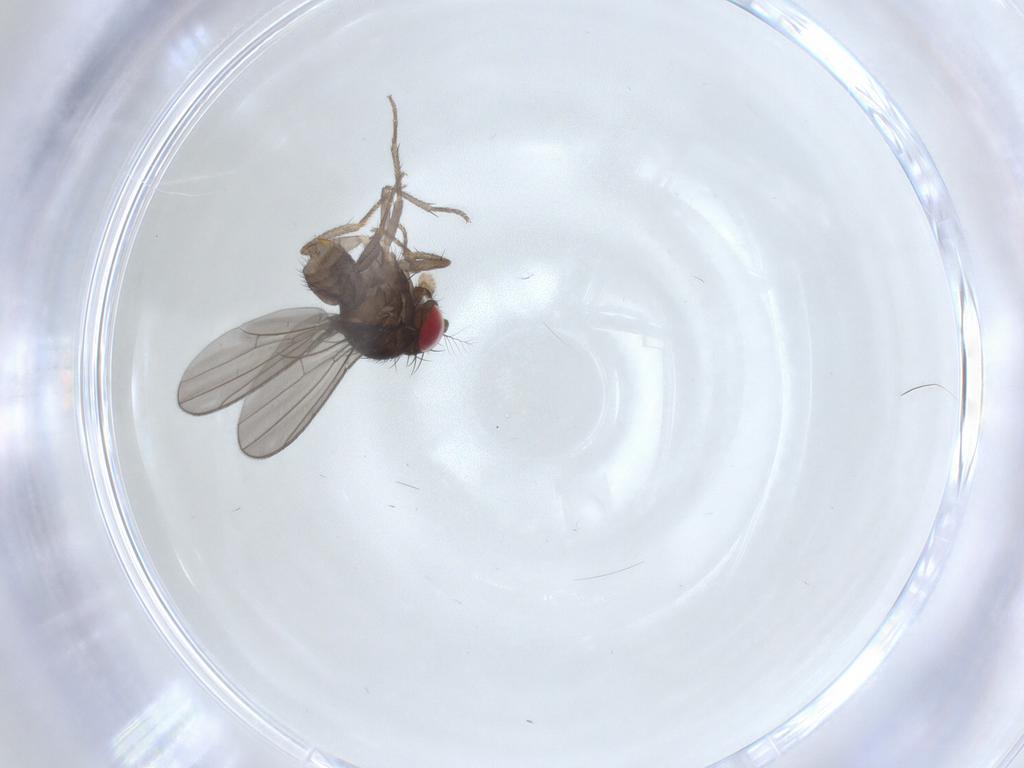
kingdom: Animalia
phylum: Arthropoda
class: Insecta
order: Diptera
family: Drosophilidae
